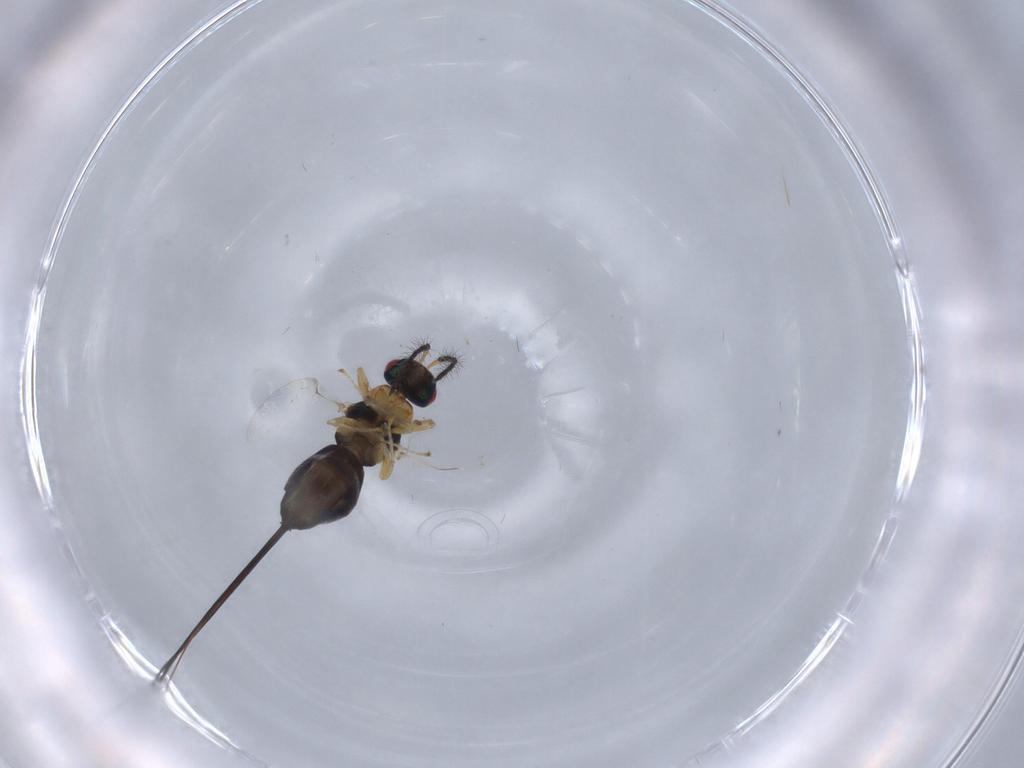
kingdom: Animalia
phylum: Arthropoda
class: Insecta
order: Hymenoptera
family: Agaonidae
